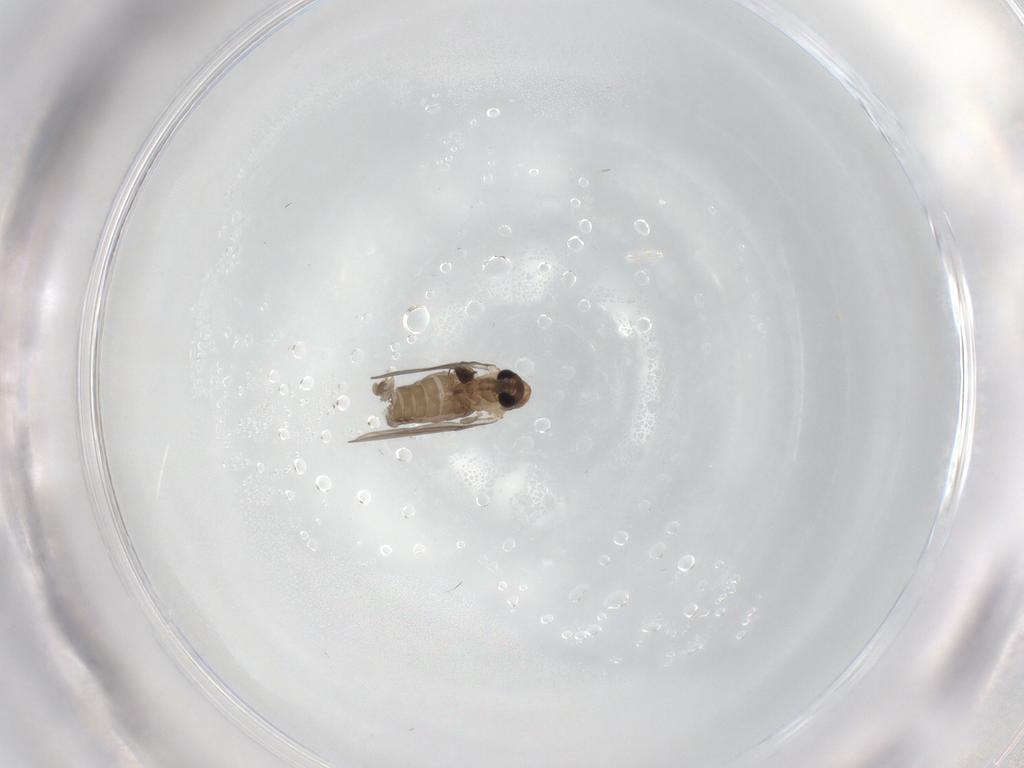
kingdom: Animalia
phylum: Arthropoda
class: Insecta
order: Diptera
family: Psychodidae
